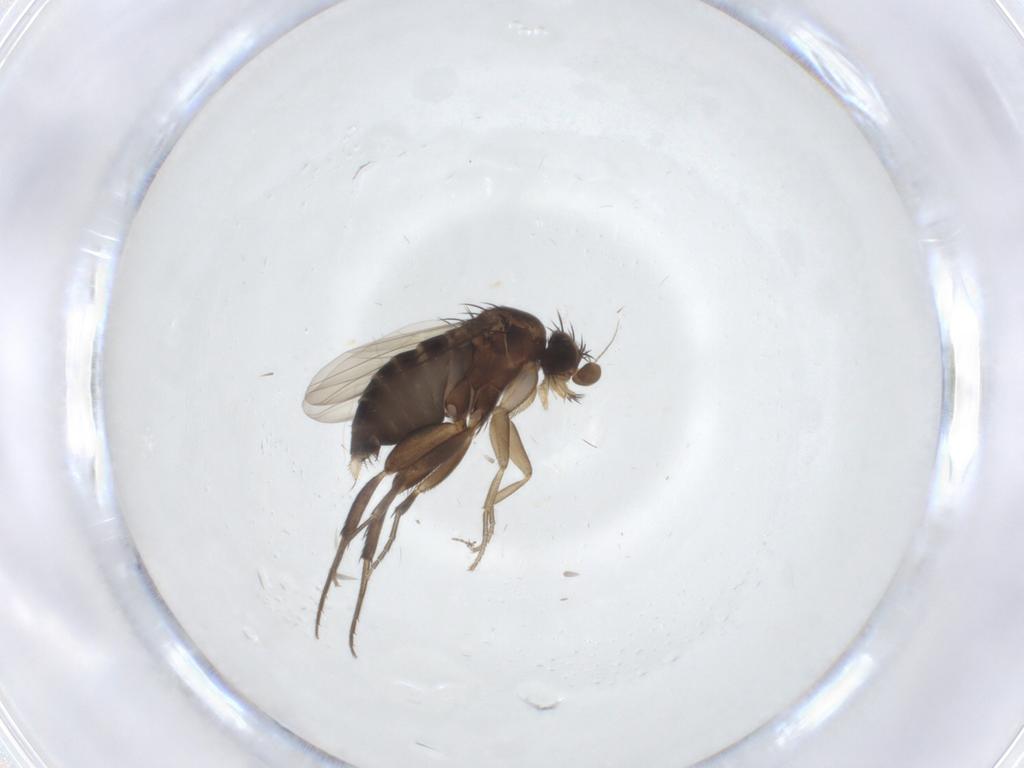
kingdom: Animalia
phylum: Arthropoda
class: Insecta
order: Diptera
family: Phoridae
